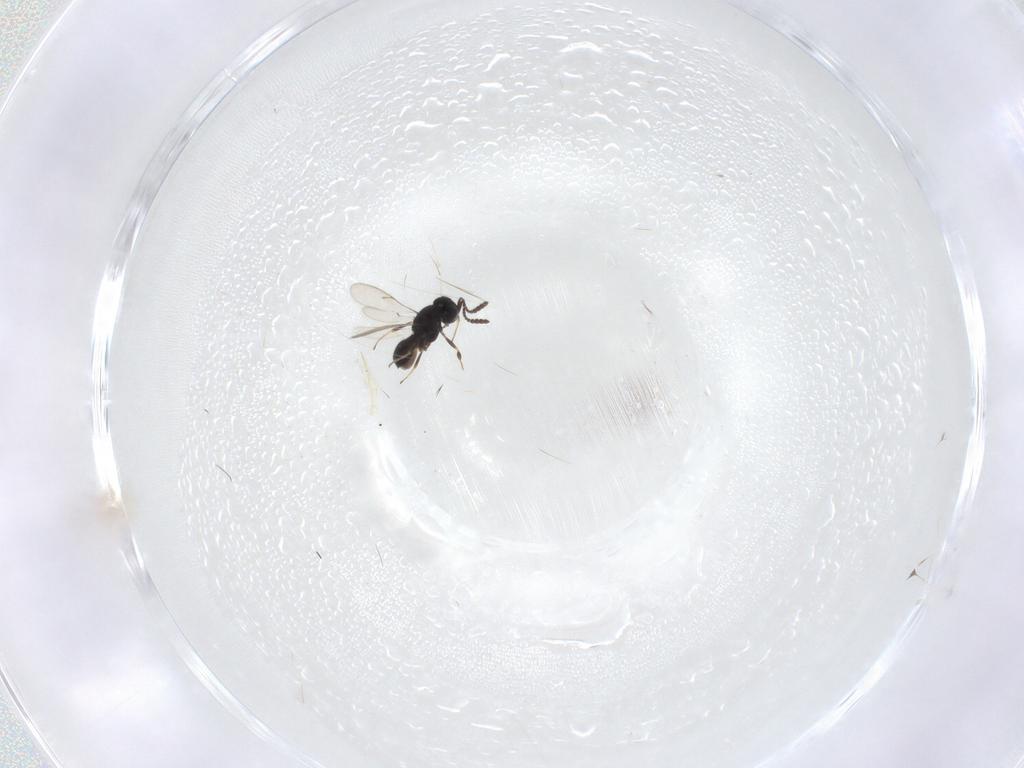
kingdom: Animalia
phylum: Arthropoda
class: Insecta
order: Hymenoptera
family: Scelionidae
